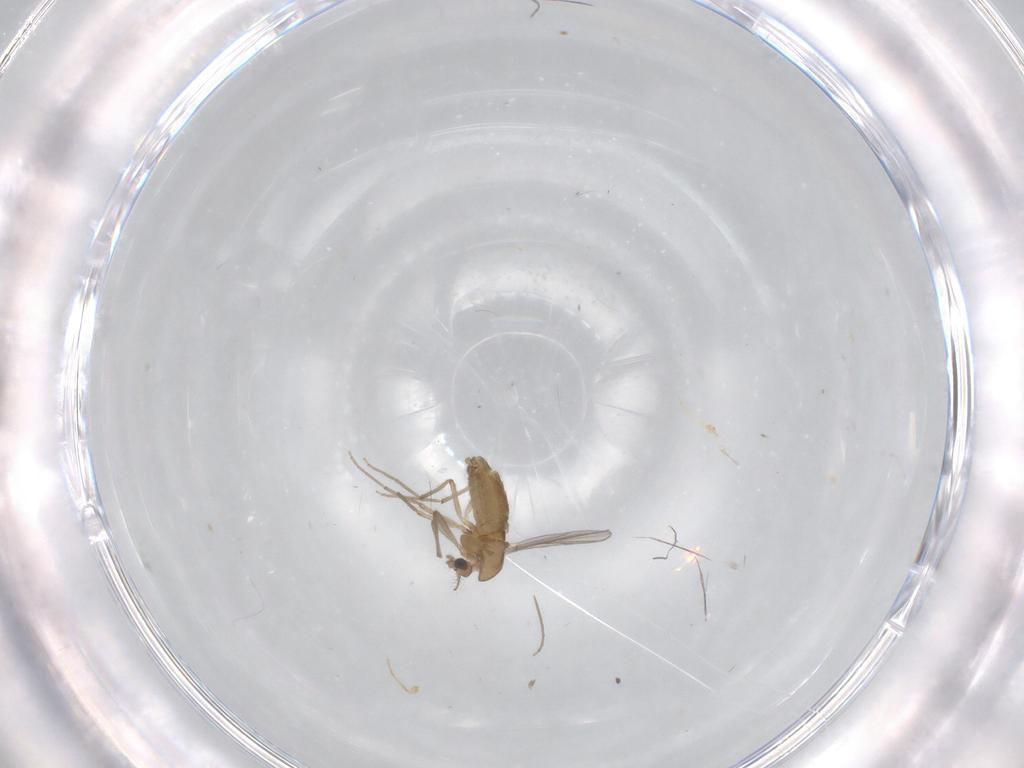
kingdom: Animalia
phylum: Arthropoda
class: Insecta
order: Diptera
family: Chironomidae
